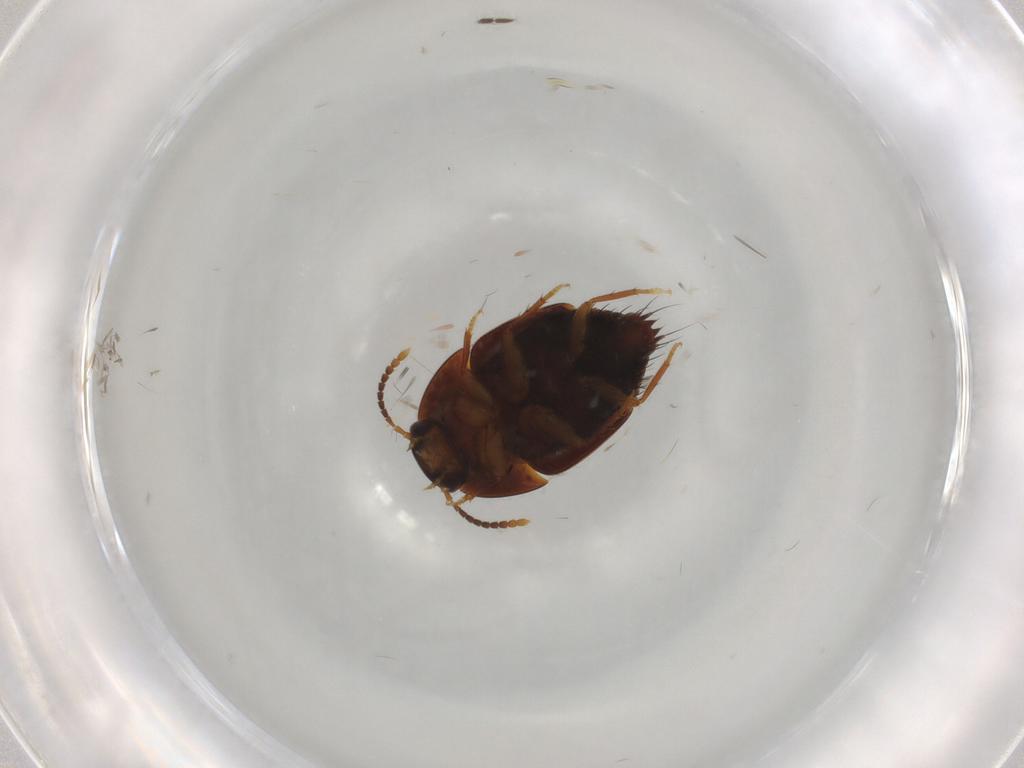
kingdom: Animalia
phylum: Arthropoda
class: Insecta
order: Coleoptera
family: Staphylinidae
